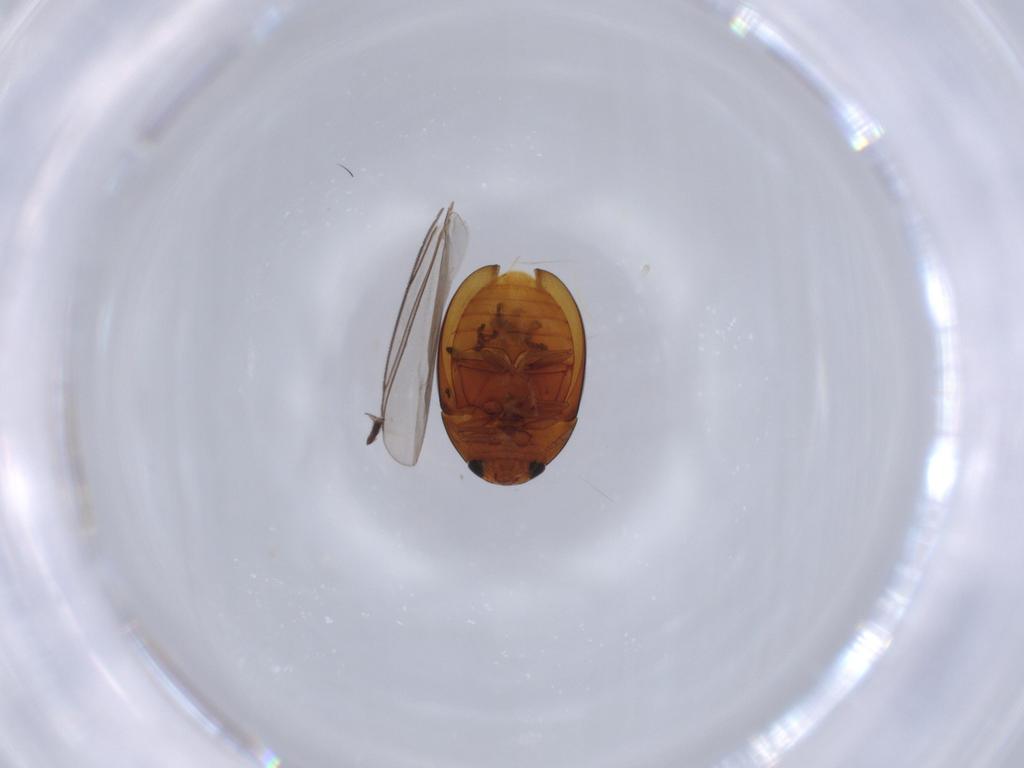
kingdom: Animalia
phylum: Arthropoda
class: Insecta
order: Coleoptera
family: Phalacridae
